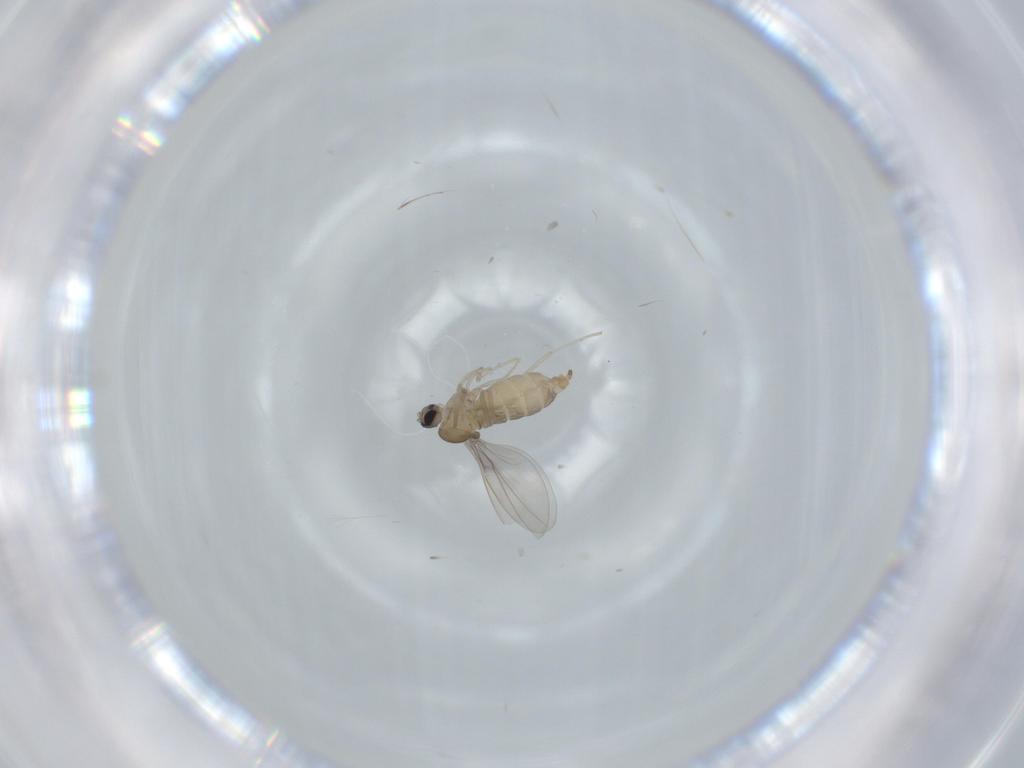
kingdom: Animalia
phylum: Arthropoda
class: Insecta
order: Diptera
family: Cecidomyiidae
